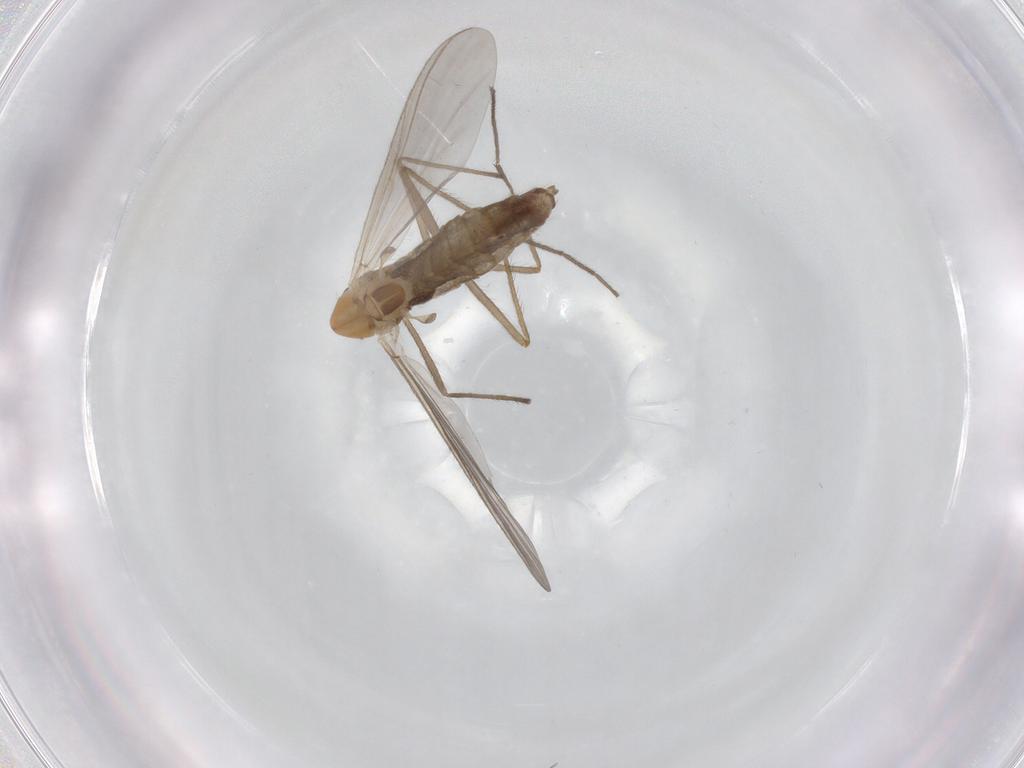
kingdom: Animalia
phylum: Arthropoda
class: Insecta
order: Diptera
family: Chironomidae
